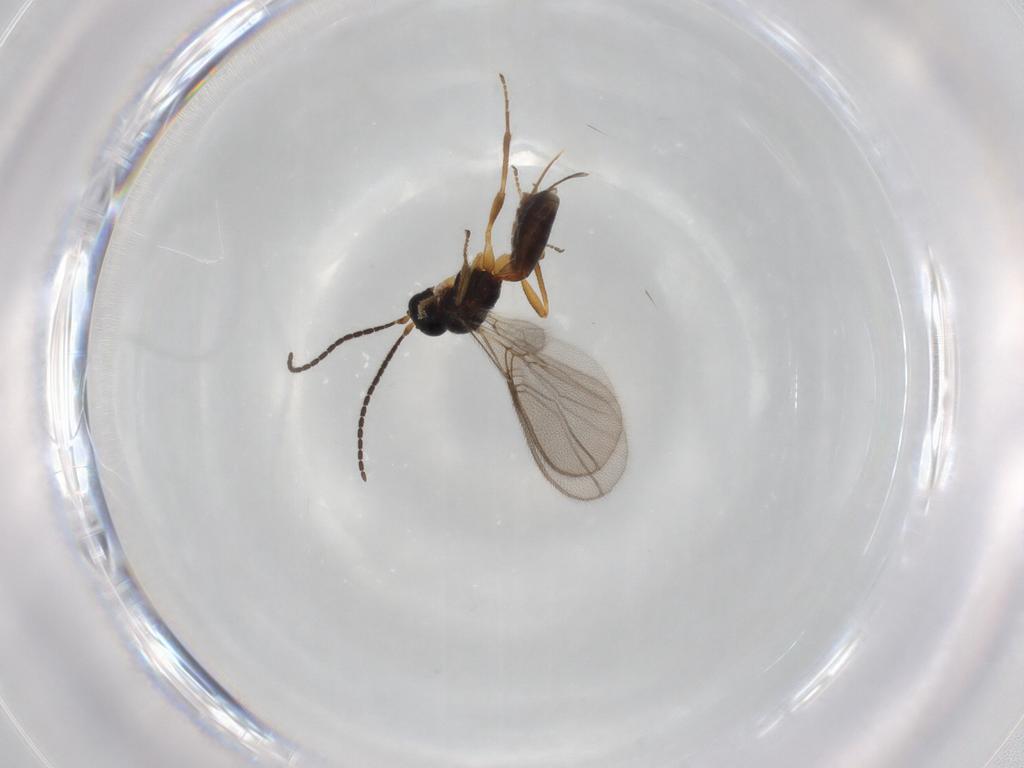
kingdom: Animalia
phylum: Arthropoda
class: Insecta
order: Hymenoptera
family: Braconidae
